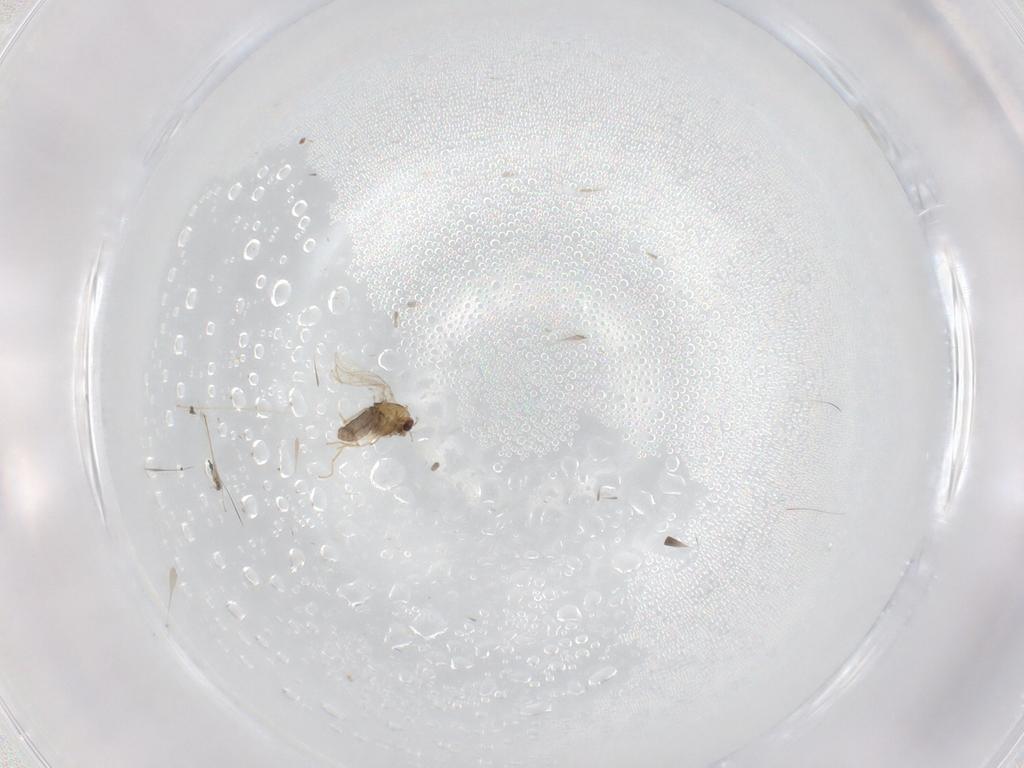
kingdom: Animalia
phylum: Arthropoda
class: Insecta
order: Diptera
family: Chironomidae
